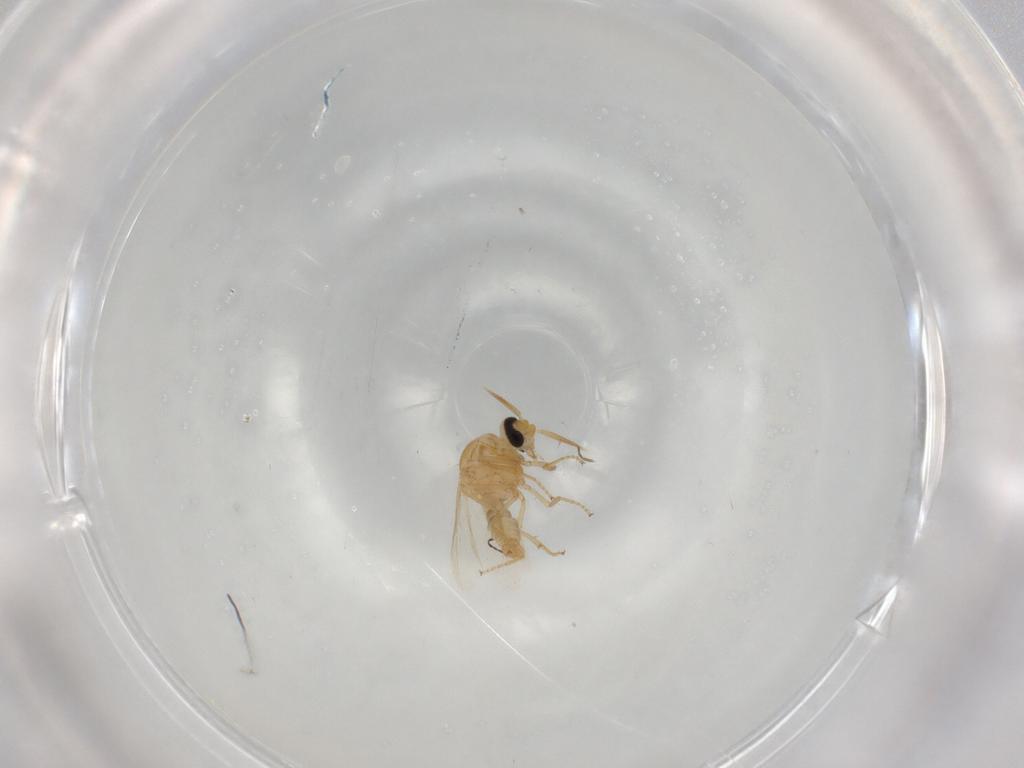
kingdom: Animalia
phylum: Arthropoda
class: Insecta
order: Diptera
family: Ceratopogonidae
